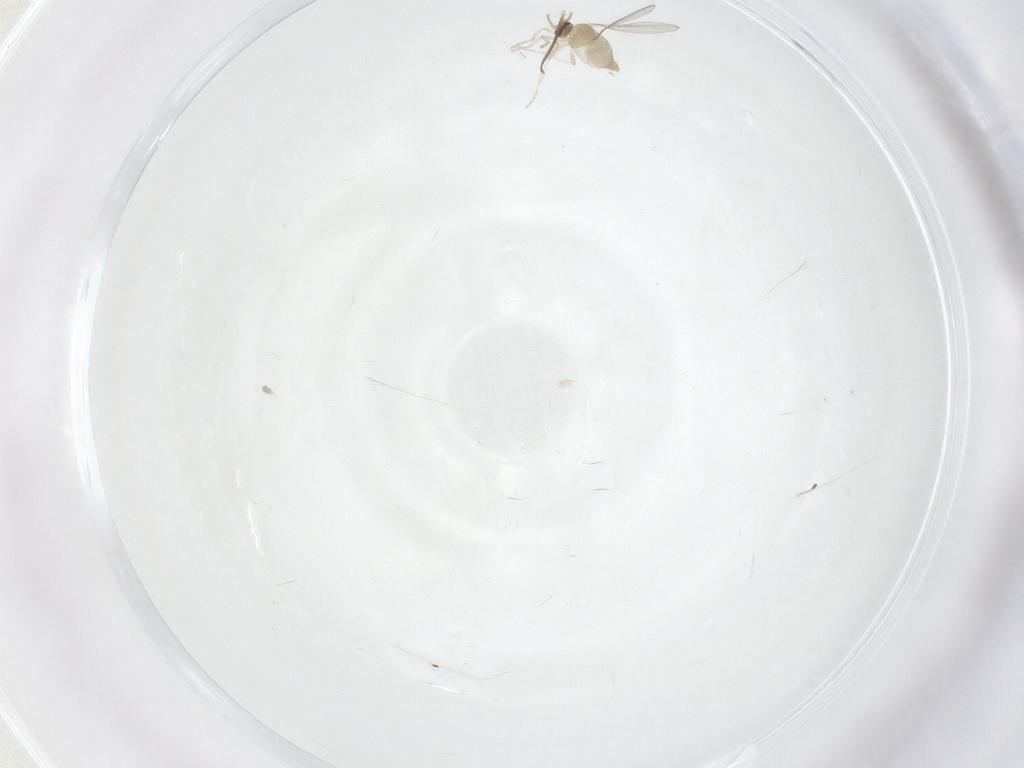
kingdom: Animalia
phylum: Arthropoda
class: Insecta
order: Diptera
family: Cecidomyiidae
